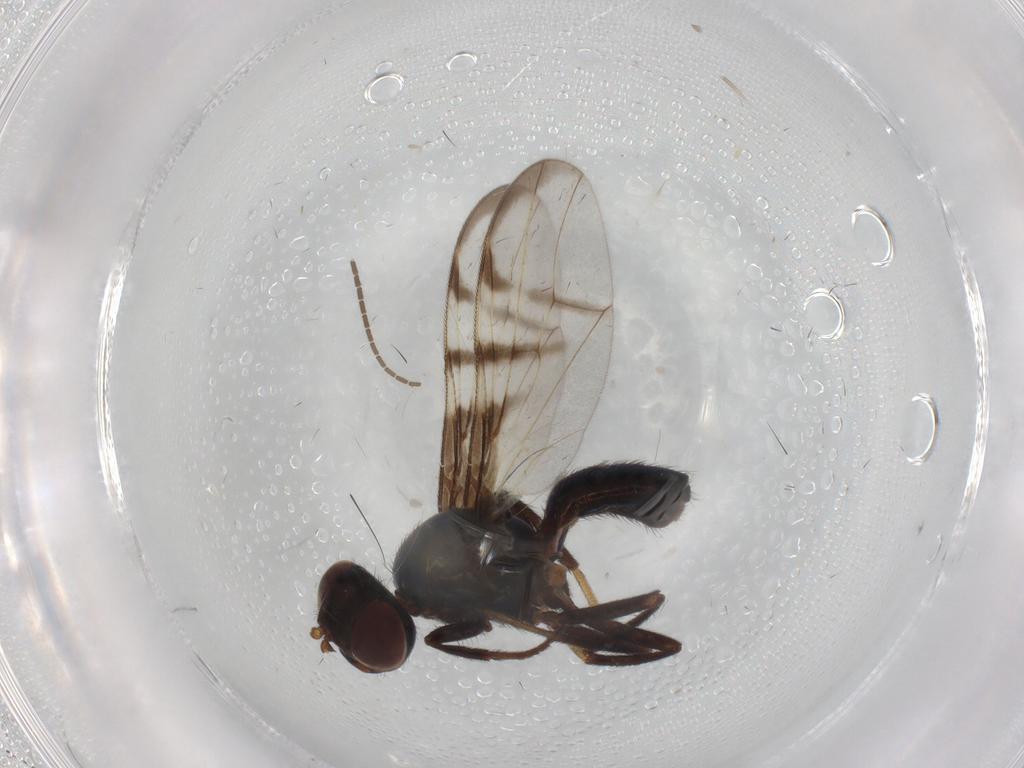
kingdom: Animalia
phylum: Arthropoda
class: Insecta
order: Diptera
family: Sciaridae
